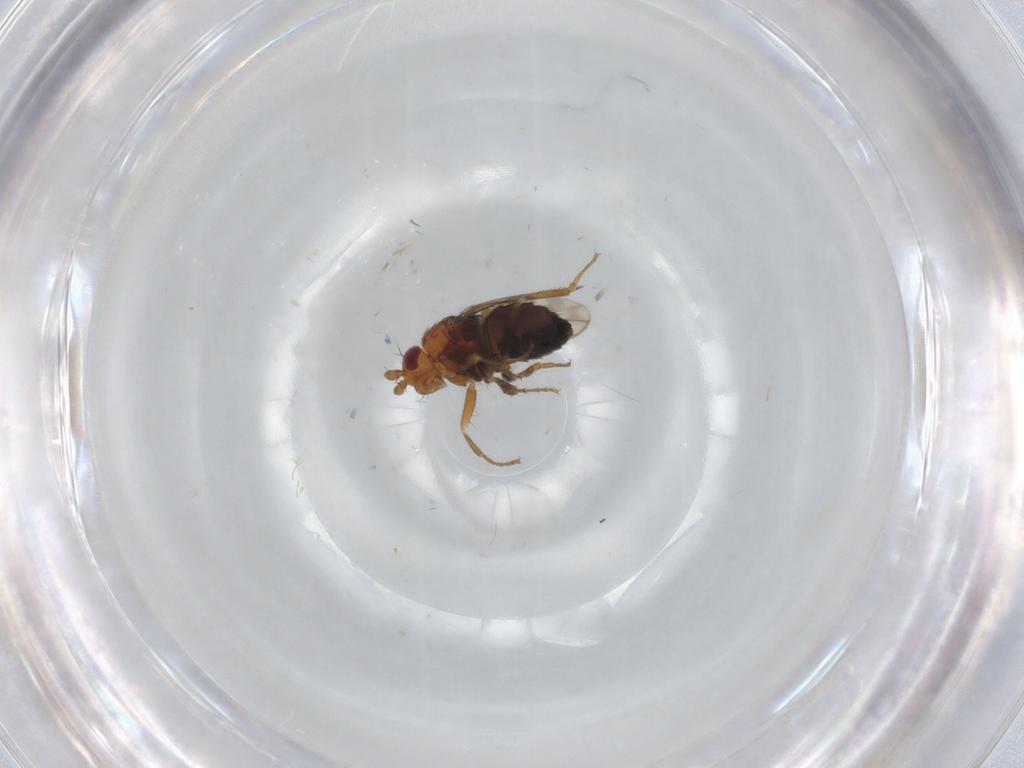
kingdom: Animalia
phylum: Arthropoda
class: Insecta
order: Diptera
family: Sphaeroceridae
